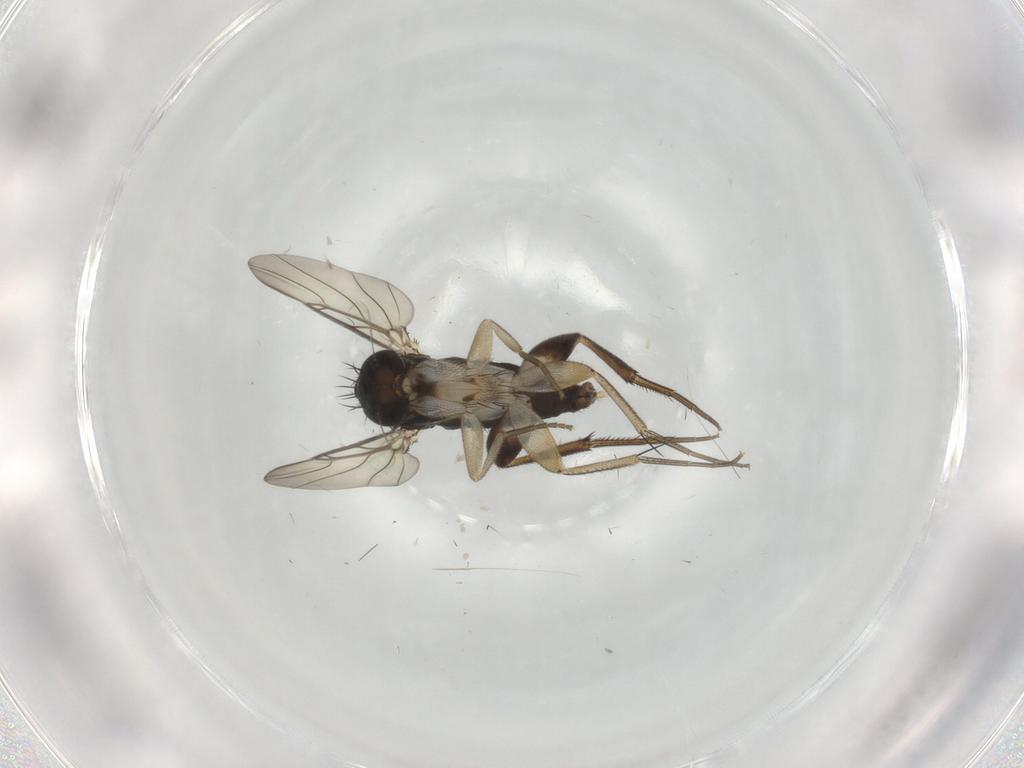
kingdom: Animalia
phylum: Arthropoda
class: Insecta
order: Diptera
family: Phoridae
